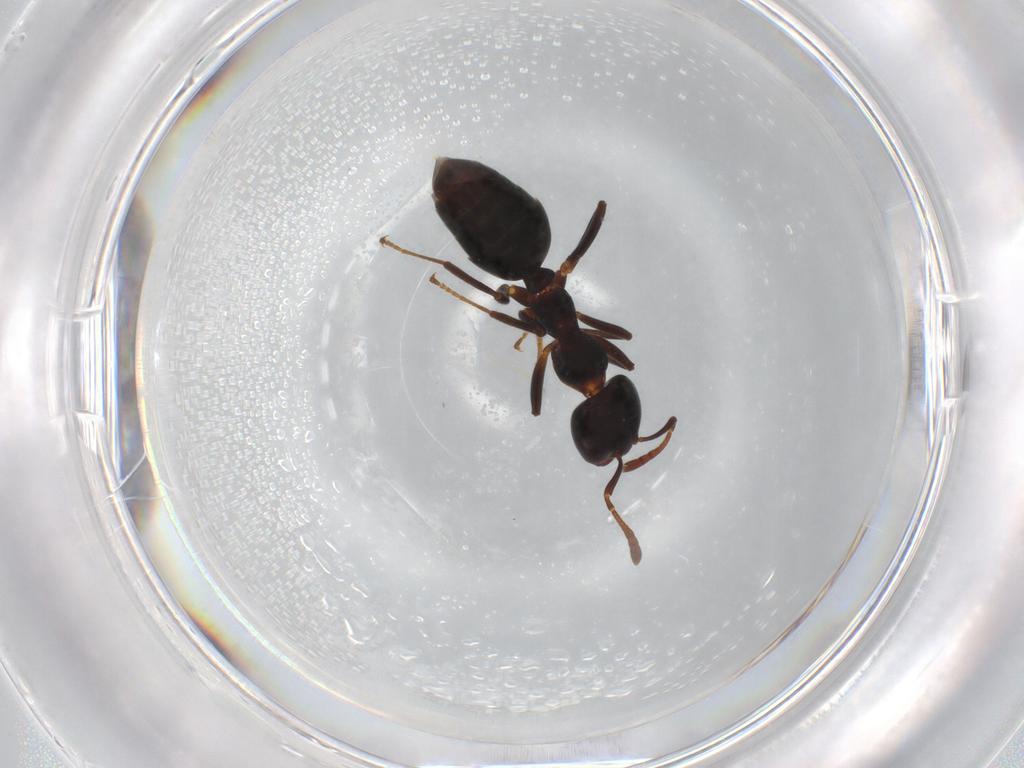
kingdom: Animalia
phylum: Arthropoda
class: Insecta
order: Hymenoptera
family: Formicidae
